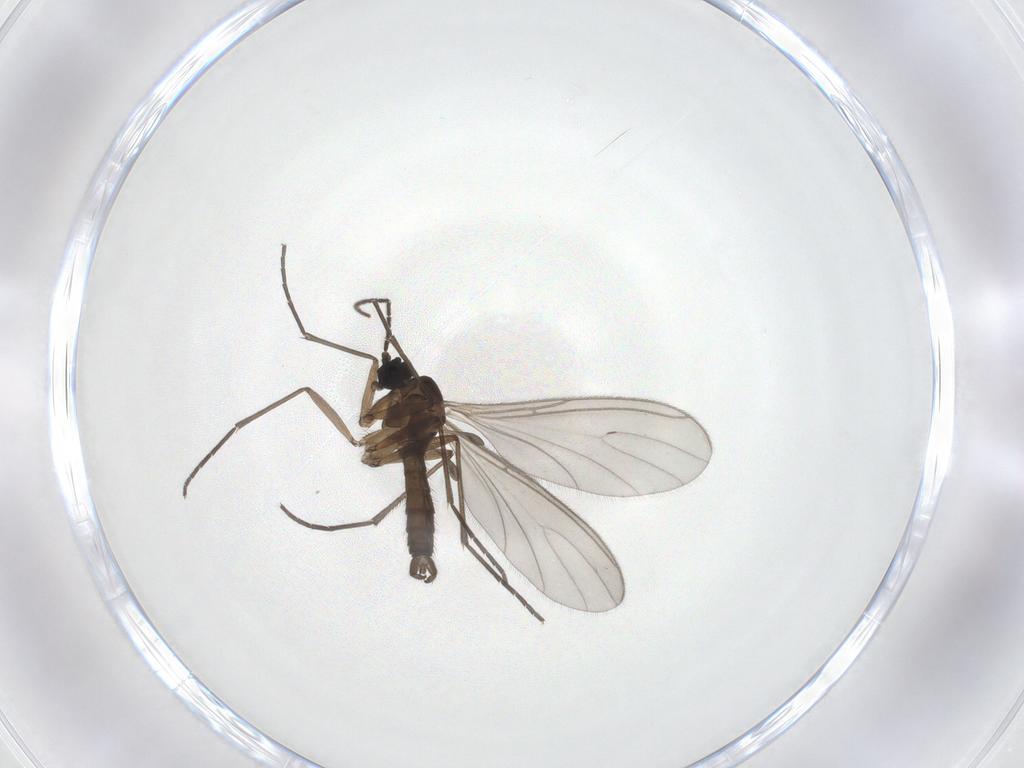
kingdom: Animalia
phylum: Arthropoda
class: Insecta
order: Diptera
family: Sciaridae
